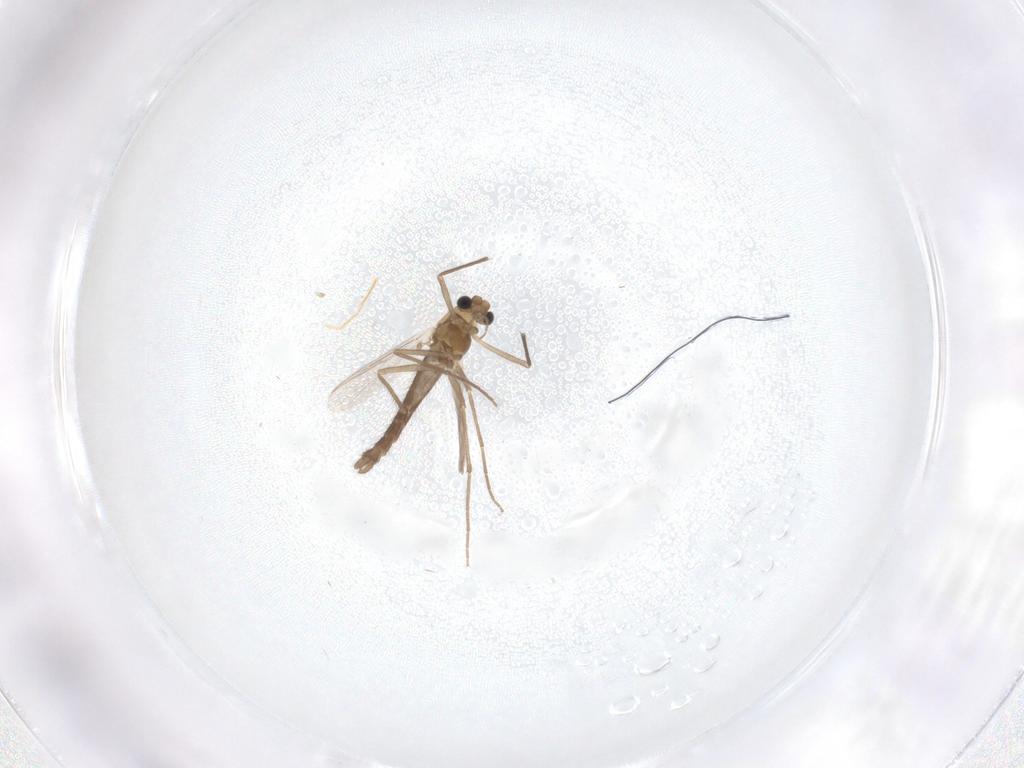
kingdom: Animalia
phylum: Arthropoda
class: Insecta
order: Diptera
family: Chironomidae
